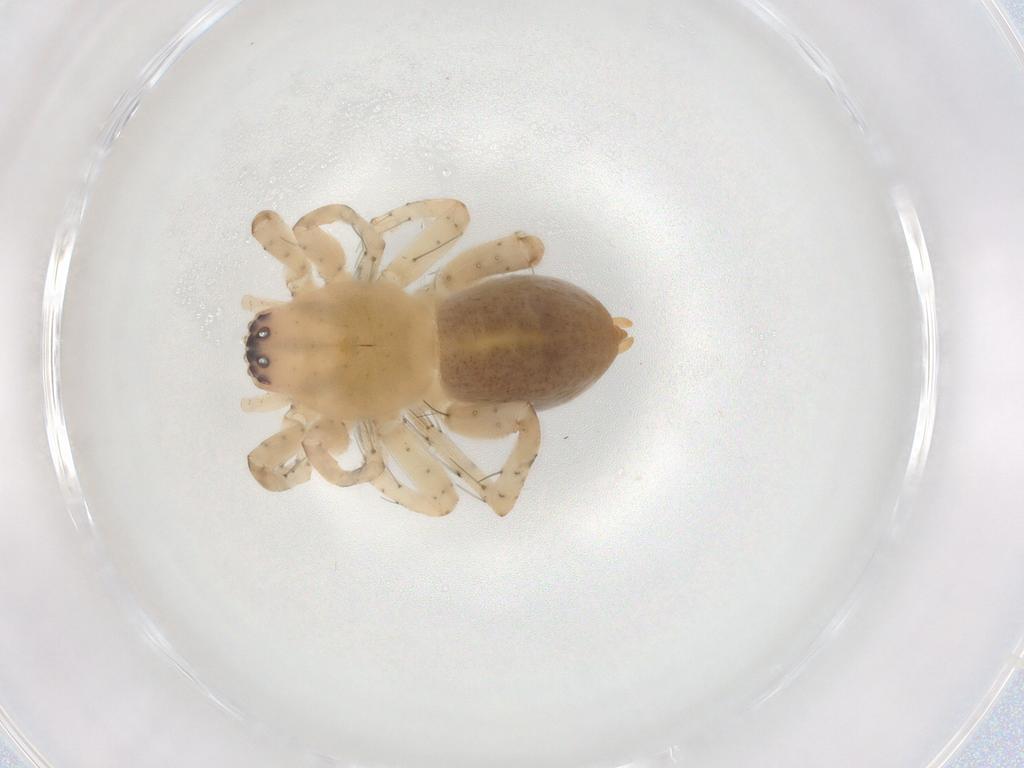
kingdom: Animalia
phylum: Arthropoda
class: Arachnida
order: Araneae
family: Clubionidae
